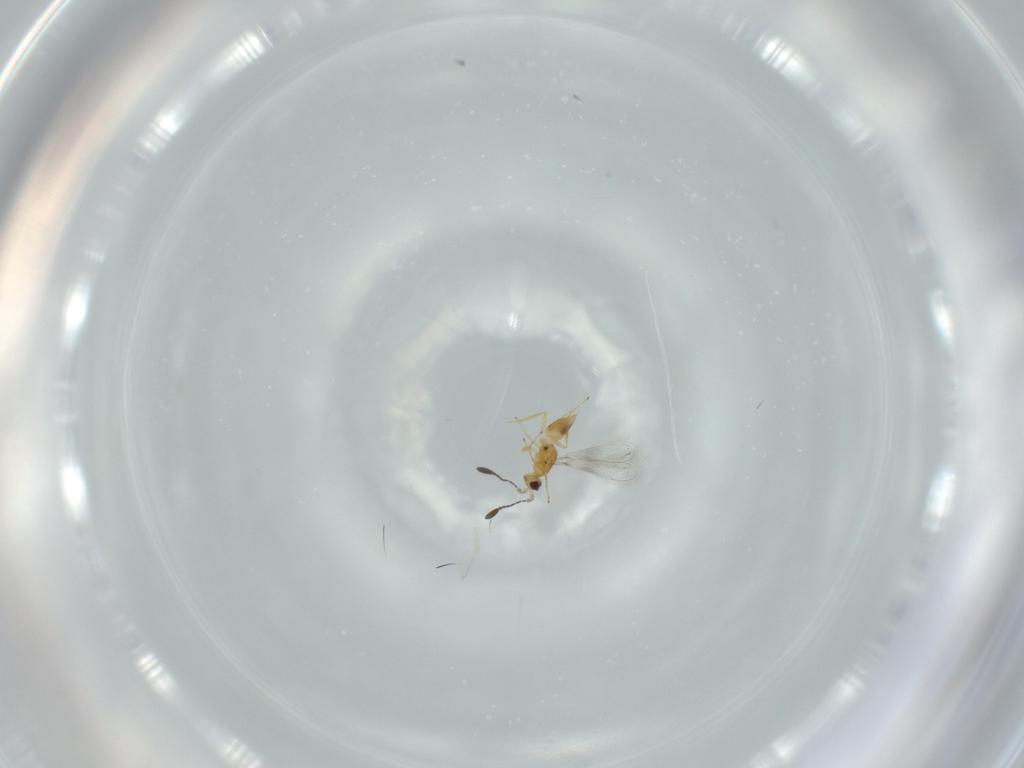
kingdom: Animalia
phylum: Arthropoda
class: Insecta
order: Hymenoptera
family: Mymaridae
